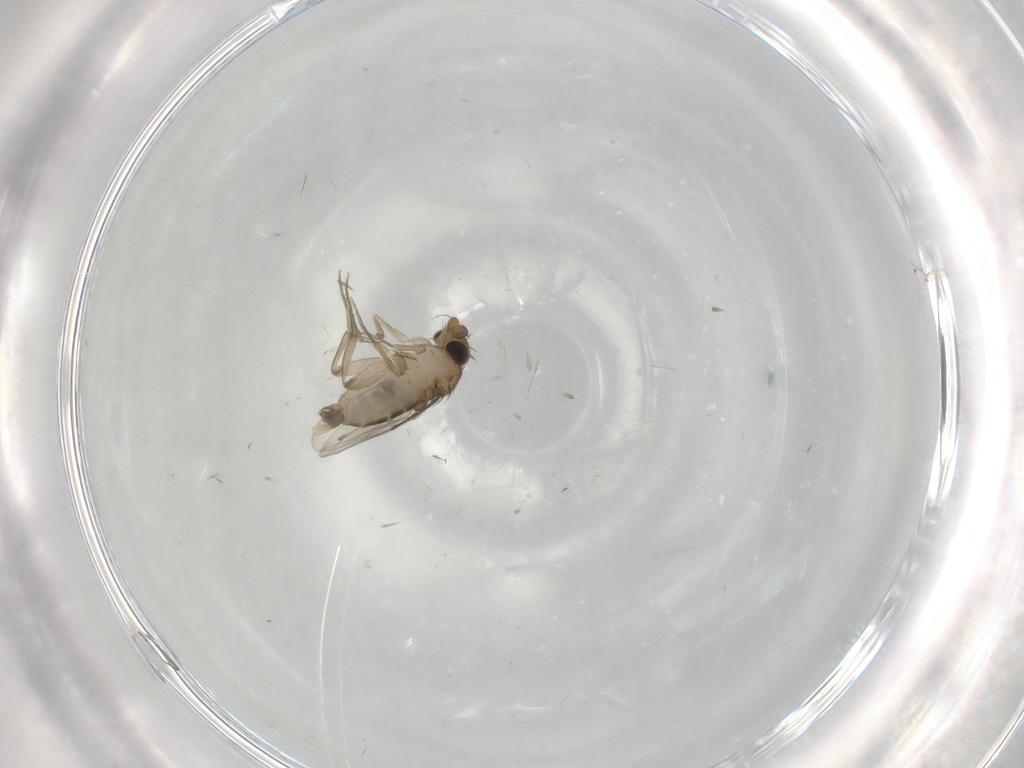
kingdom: Animalia
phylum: Arthropoda
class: Insecta
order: Diptera
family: Phoridae
